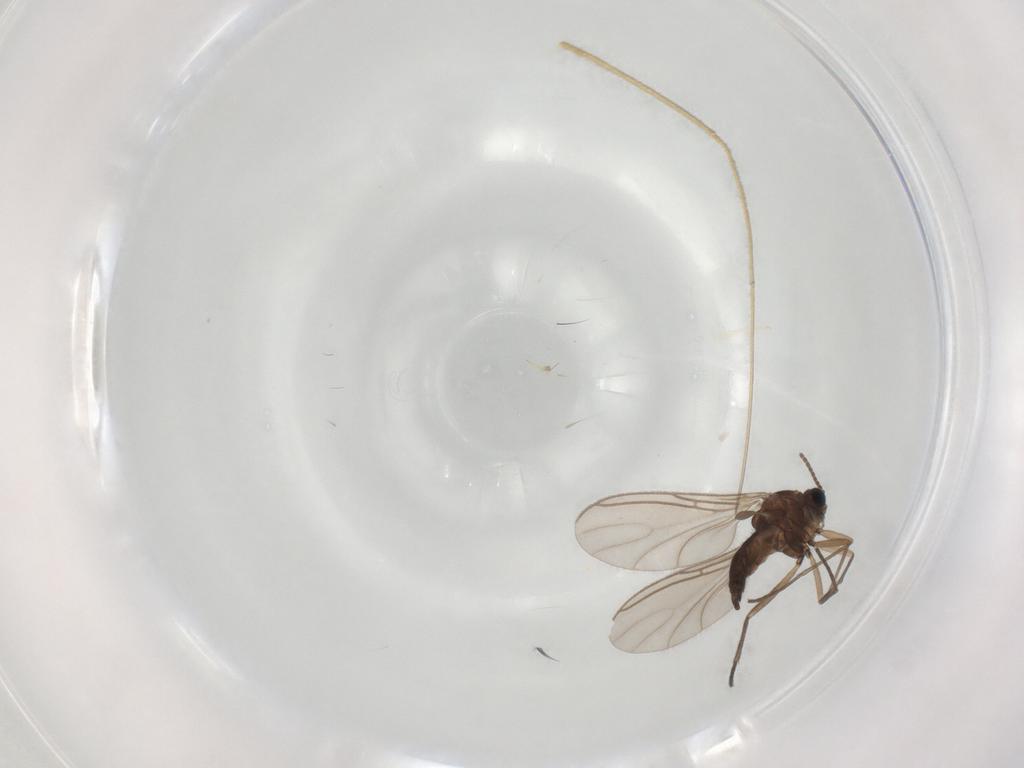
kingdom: Animalia
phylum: Arthropoda
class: Insecta
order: Diptera
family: Sciaridae
